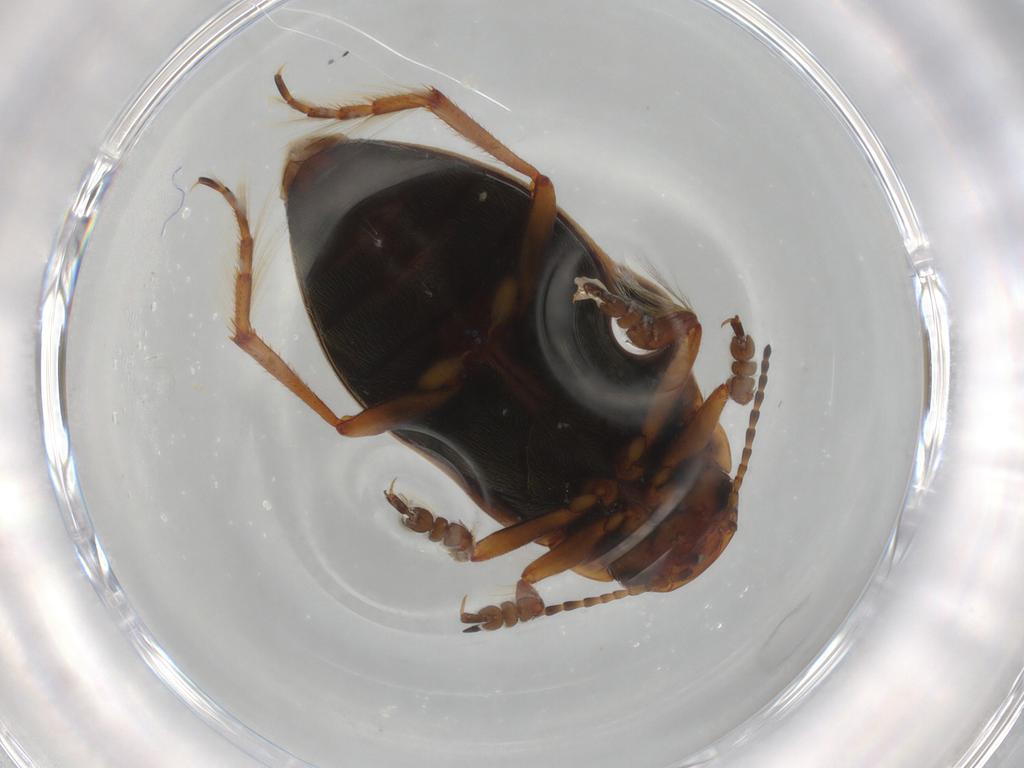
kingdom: Animalia
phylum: Arthropoda
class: Insecta
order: Coleoptera
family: Dytiscidae
